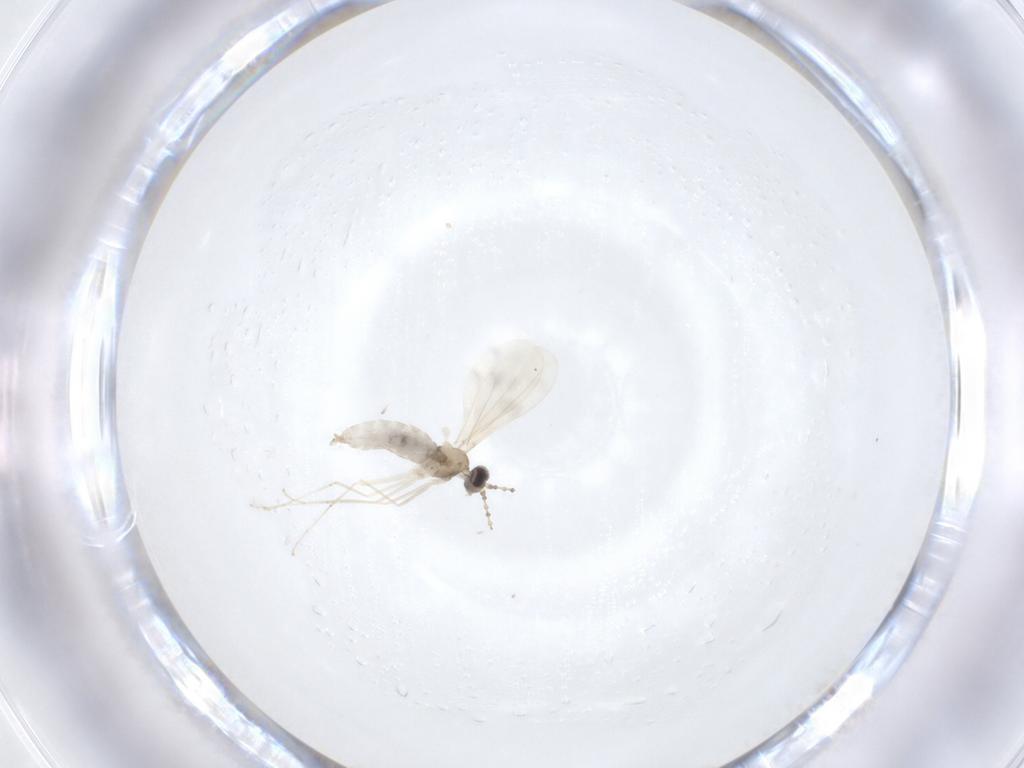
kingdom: Animalia
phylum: Arthropoda
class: Insecta
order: Diptera
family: Cecidomyiidae
